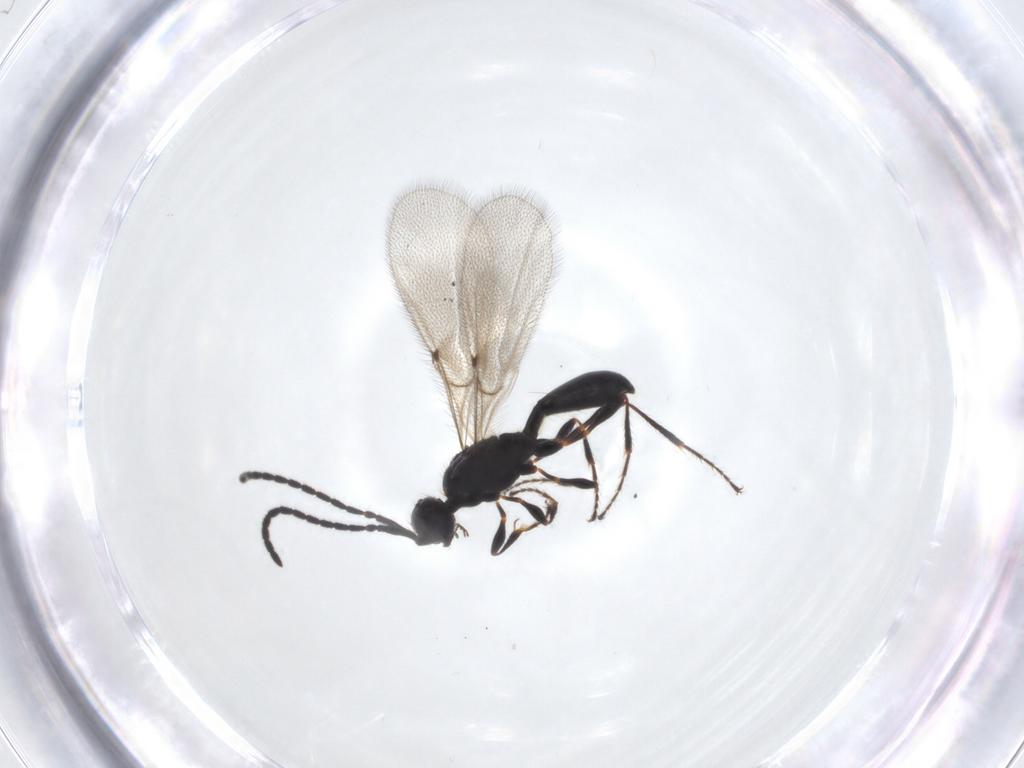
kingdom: Animalia
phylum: Arthropoda
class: Insecta
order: Hymenoptera
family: Diapriidae
